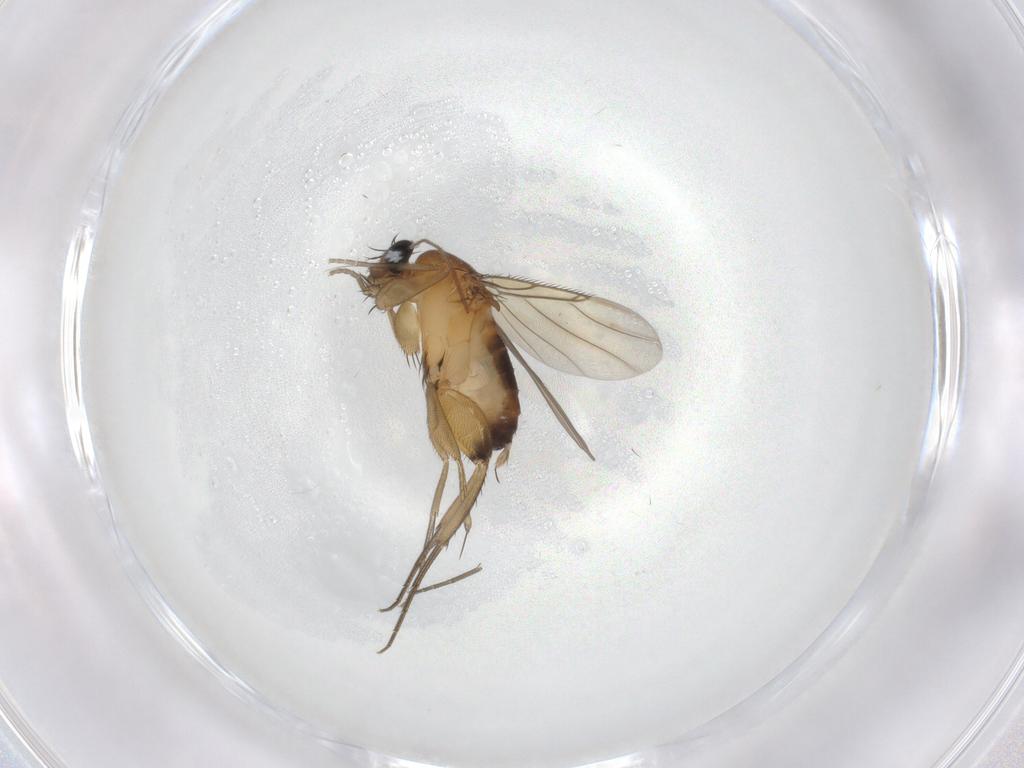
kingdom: Animalia
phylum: Arthropoda
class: Insecta
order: Diptera
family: Phoridae
